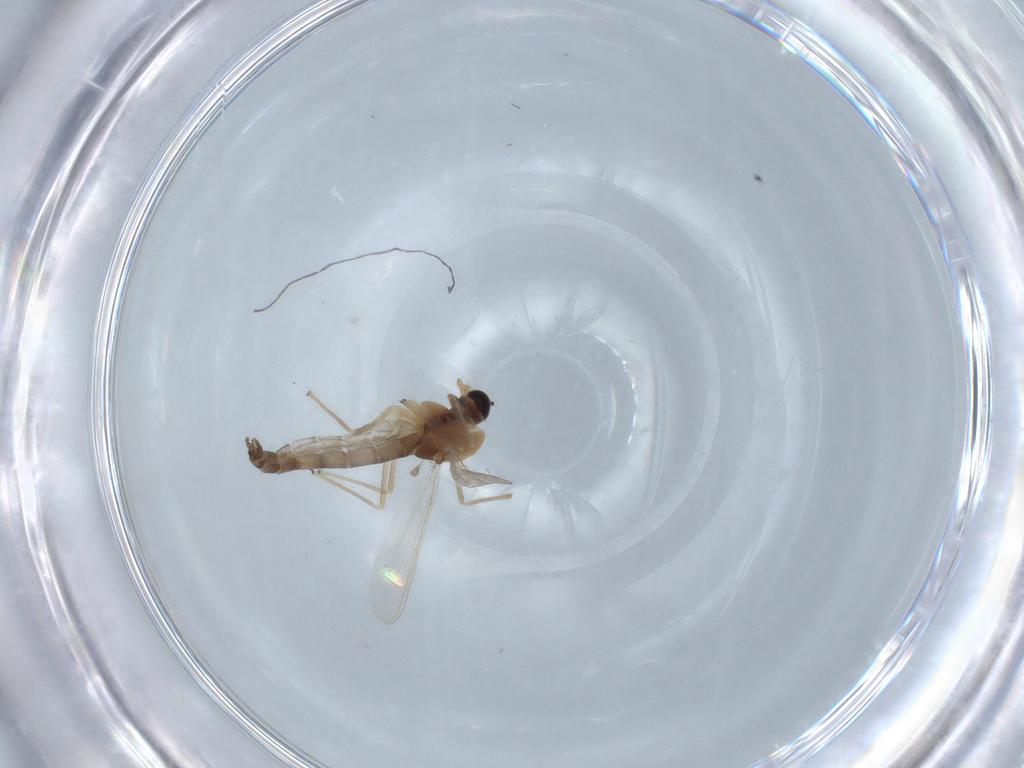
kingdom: Animalia
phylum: Arthropoda
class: Insecta
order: Diptera
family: Chironomidae
